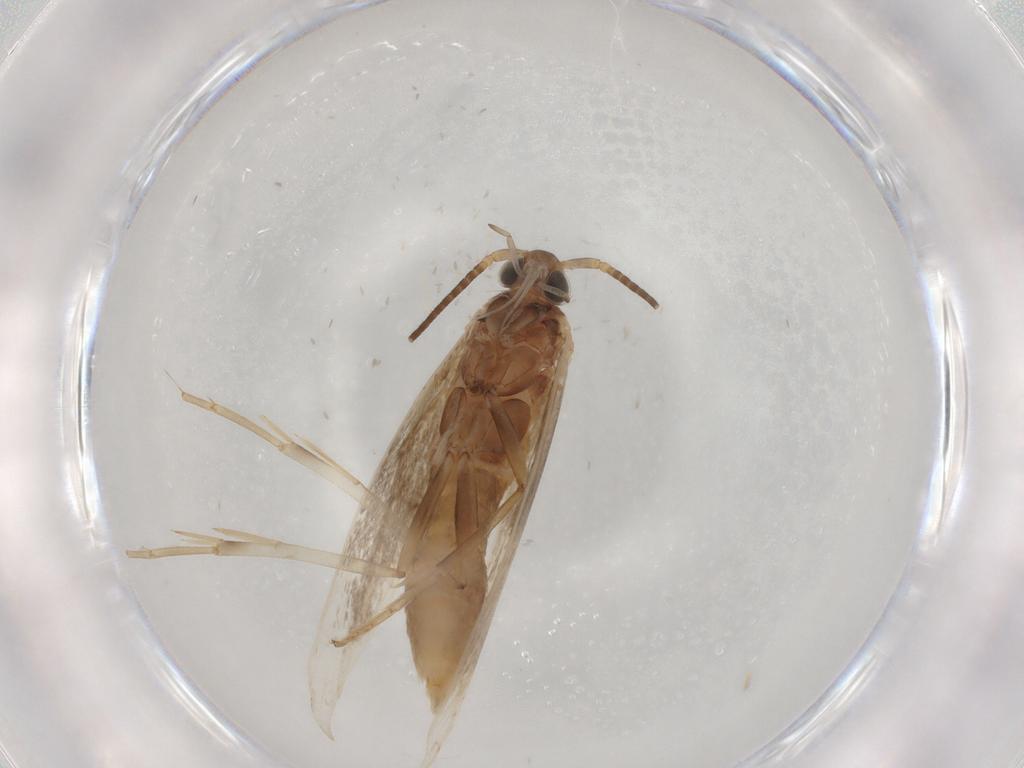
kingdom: Animalia
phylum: Arthropoda
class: Insecta
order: Lepidoptera
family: Coleophoridae
